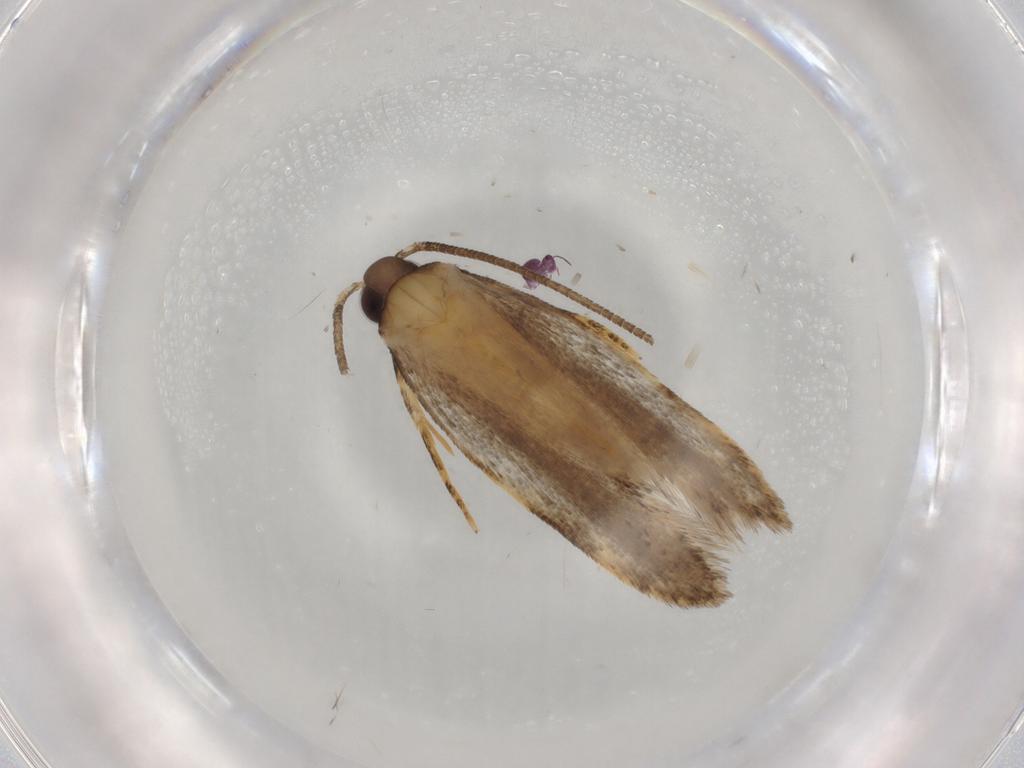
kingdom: Animalia
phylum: Arthropoda
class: Insecta
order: Lepidoptera
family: Autostichidae
